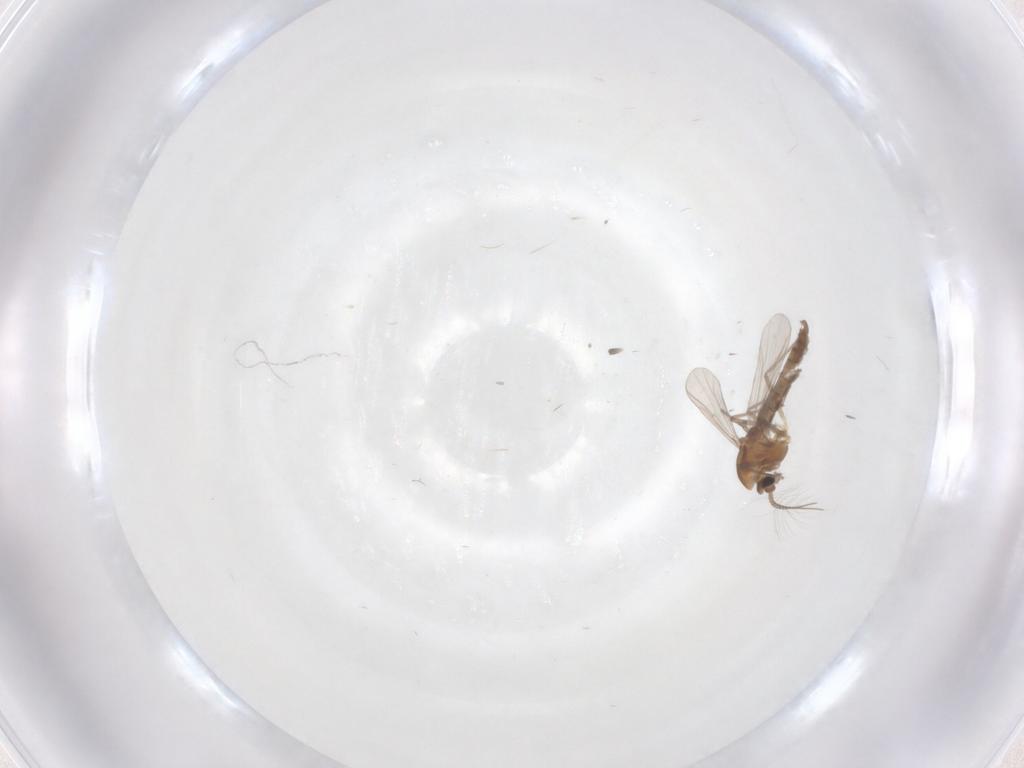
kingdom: Animalia
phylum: Arthropoda
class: Insecta
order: Diptera
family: Chironomidae
